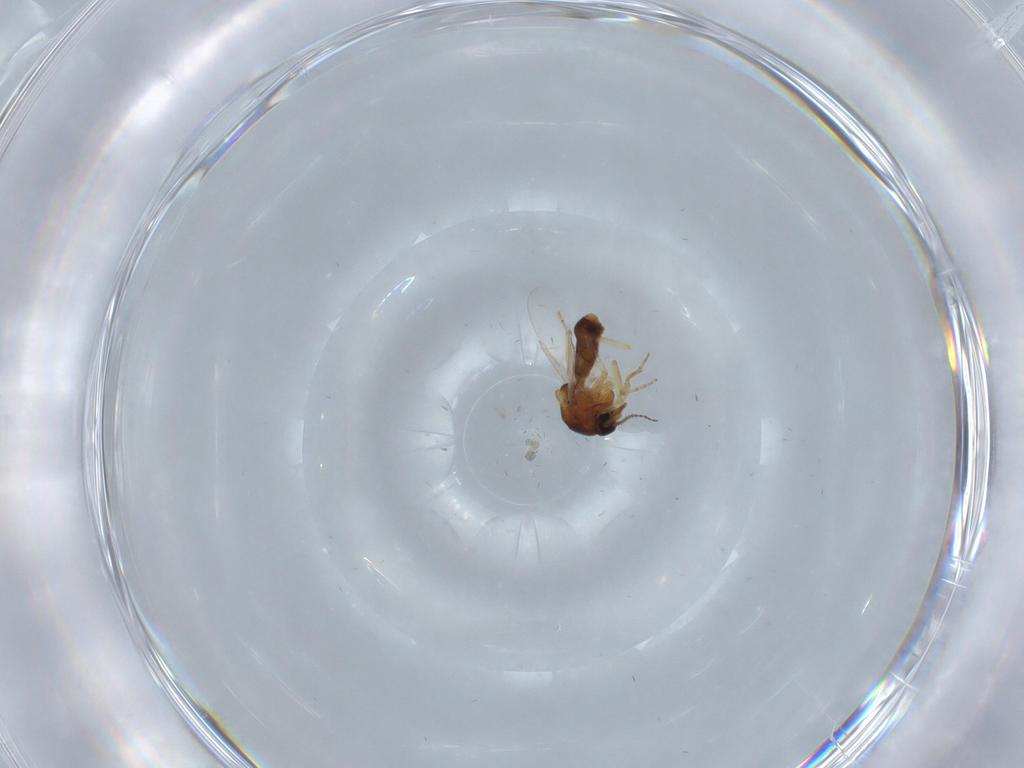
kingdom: Animalia
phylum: Arthropoda
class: Insecta
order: Diptera
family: Ceratopogonidae
